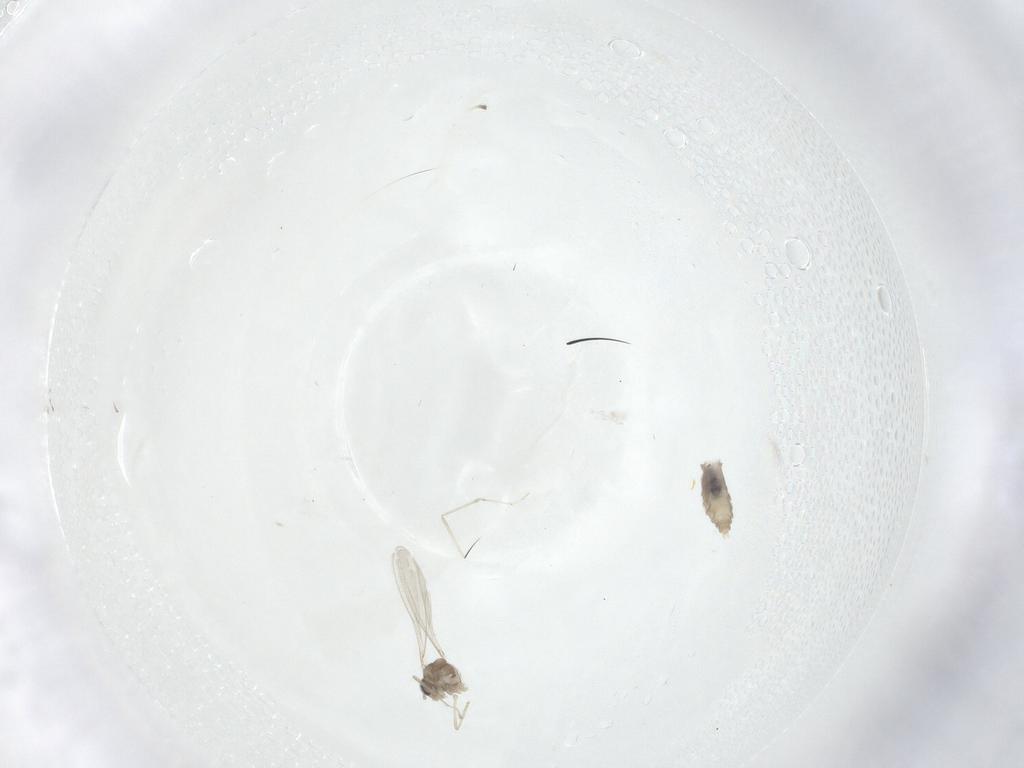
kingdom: Animalia
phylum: Arthropoda
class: Insecta
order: Diptera
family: Cecidomyiidae
